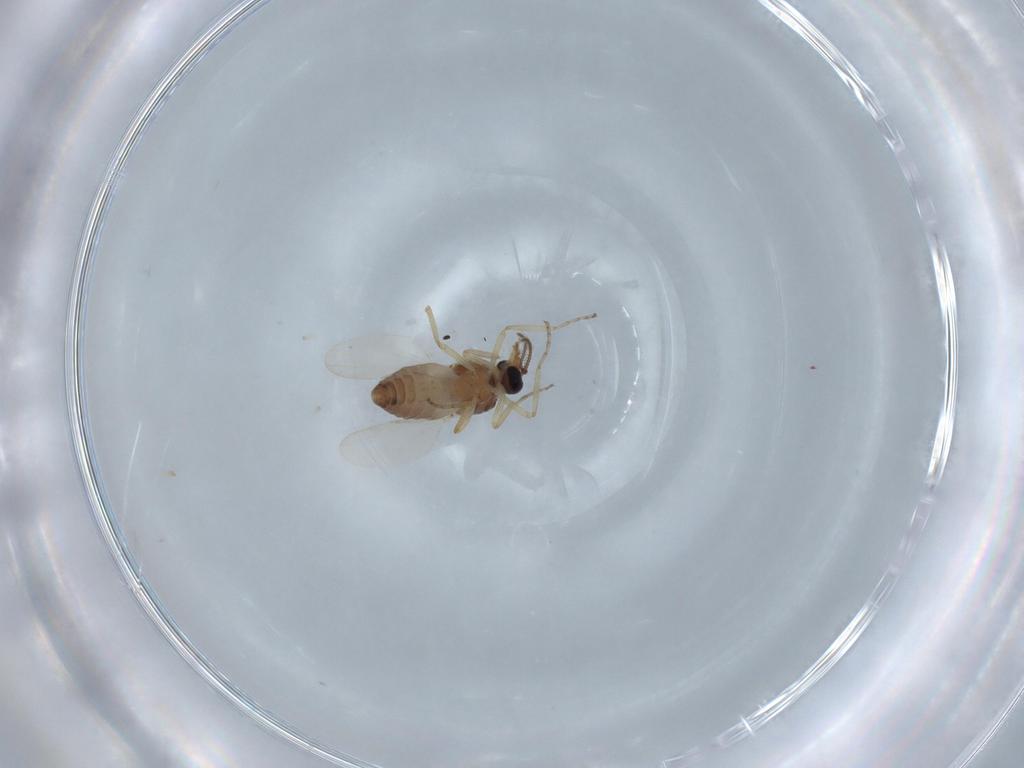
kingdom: Animalia
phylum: Arthropoda
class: Insecta
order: Diptera
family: Ceratopogonidae
